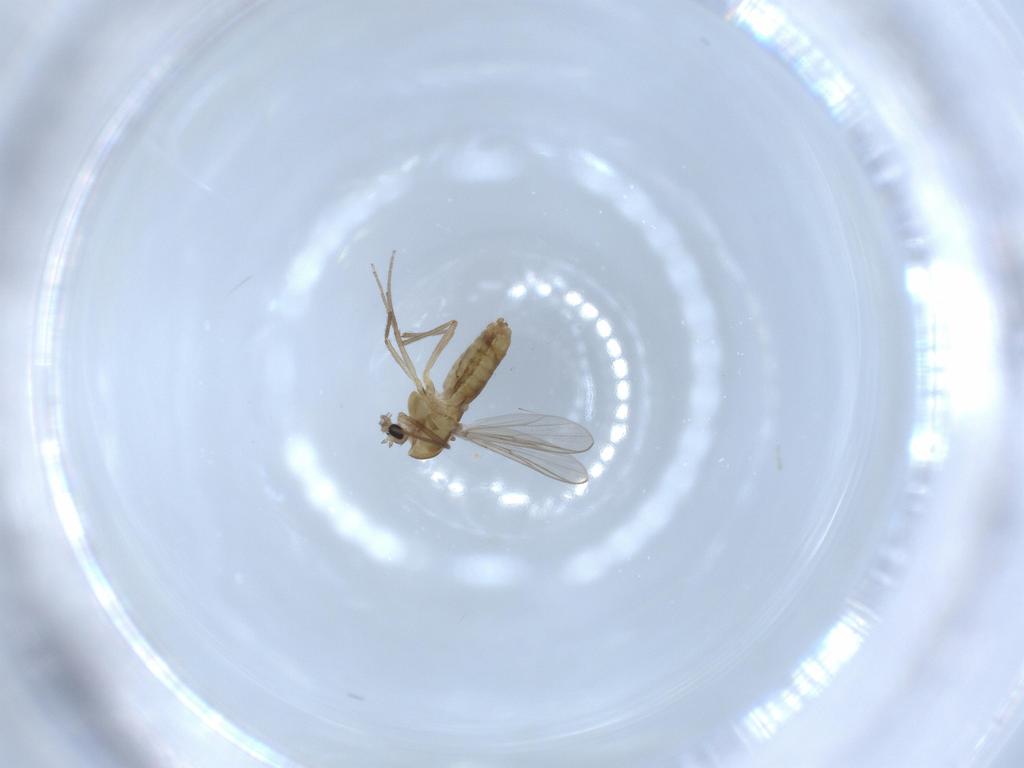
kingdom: Animalia
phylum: Arthropoda
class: Insecta
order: Diptera
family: Chironomidae
